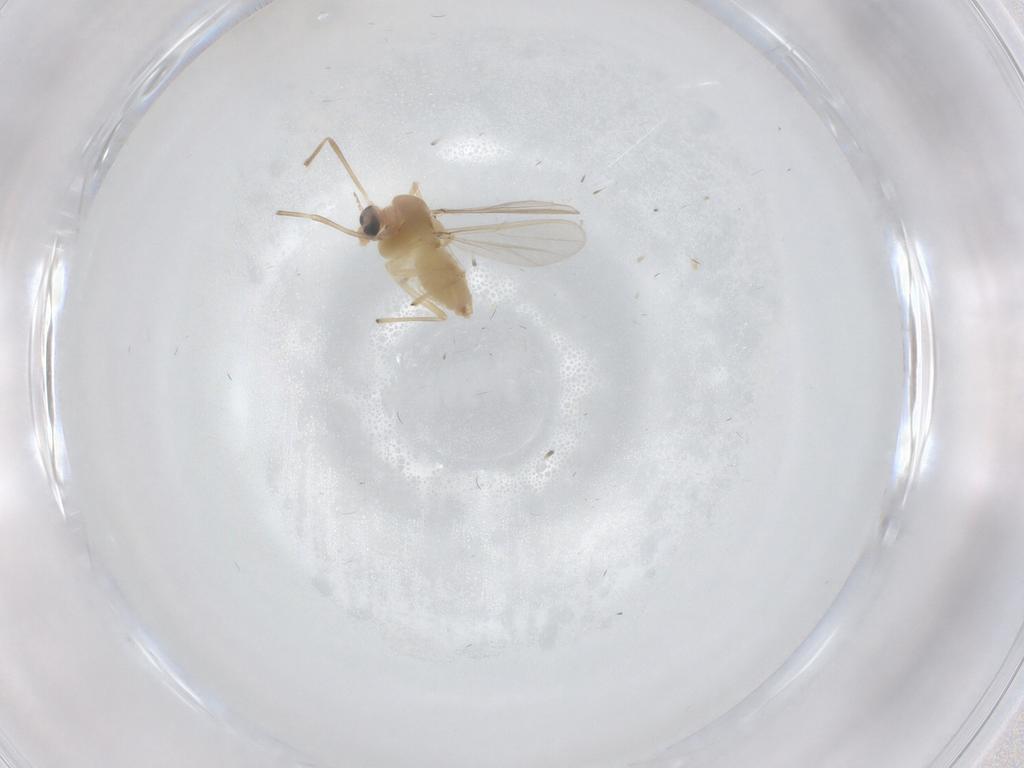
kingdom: Animalia
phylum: Arthropoda
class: Insecta
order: Diptera
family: Chironomidae
